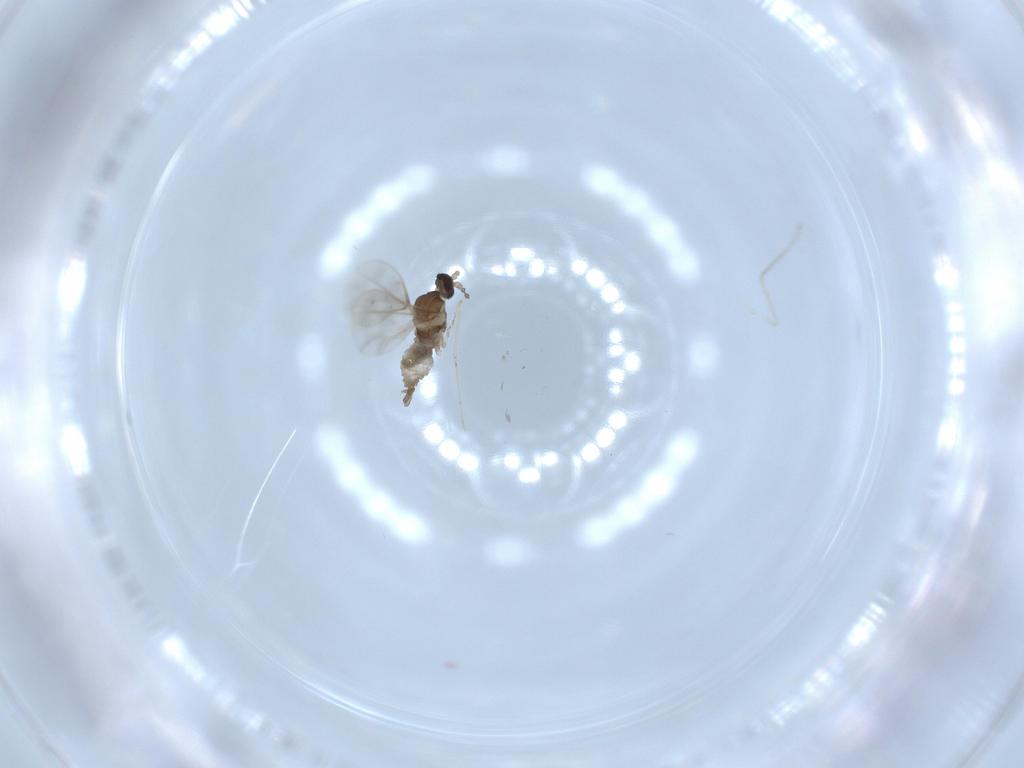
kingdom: Animalia
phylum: Arthropoda
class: Insecta
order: Diptera
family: Cecidomyiidae
